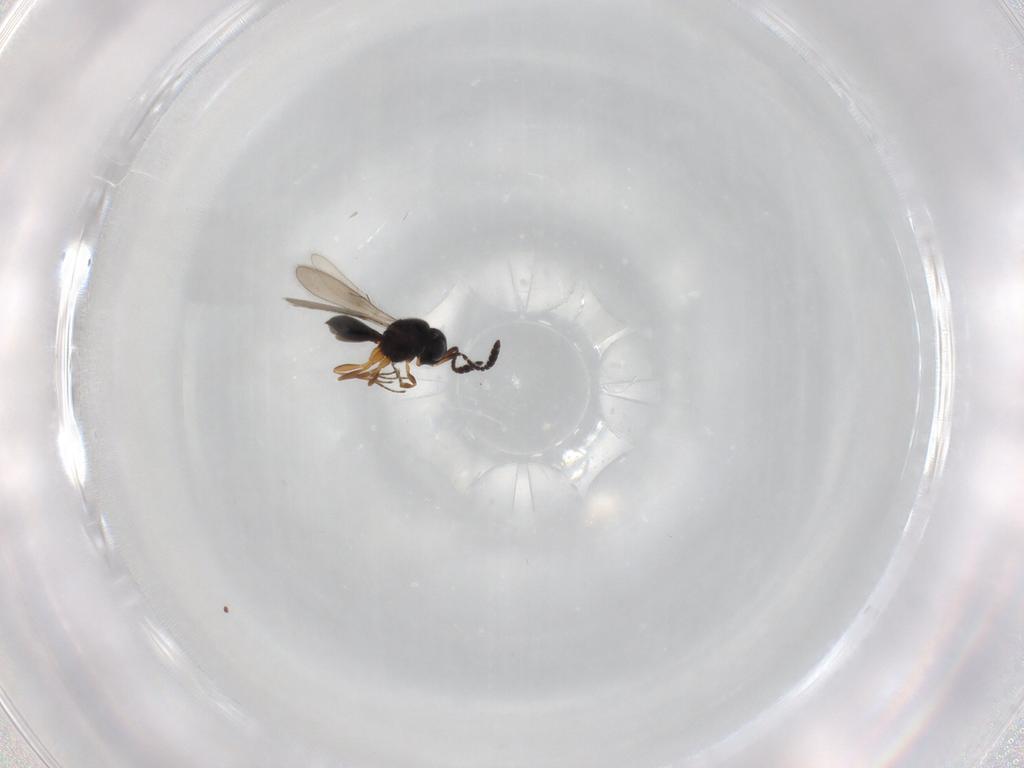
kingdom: Animalia
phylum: Arthropoda
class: Insecta
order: Hymenoptera
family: Scelionidae
